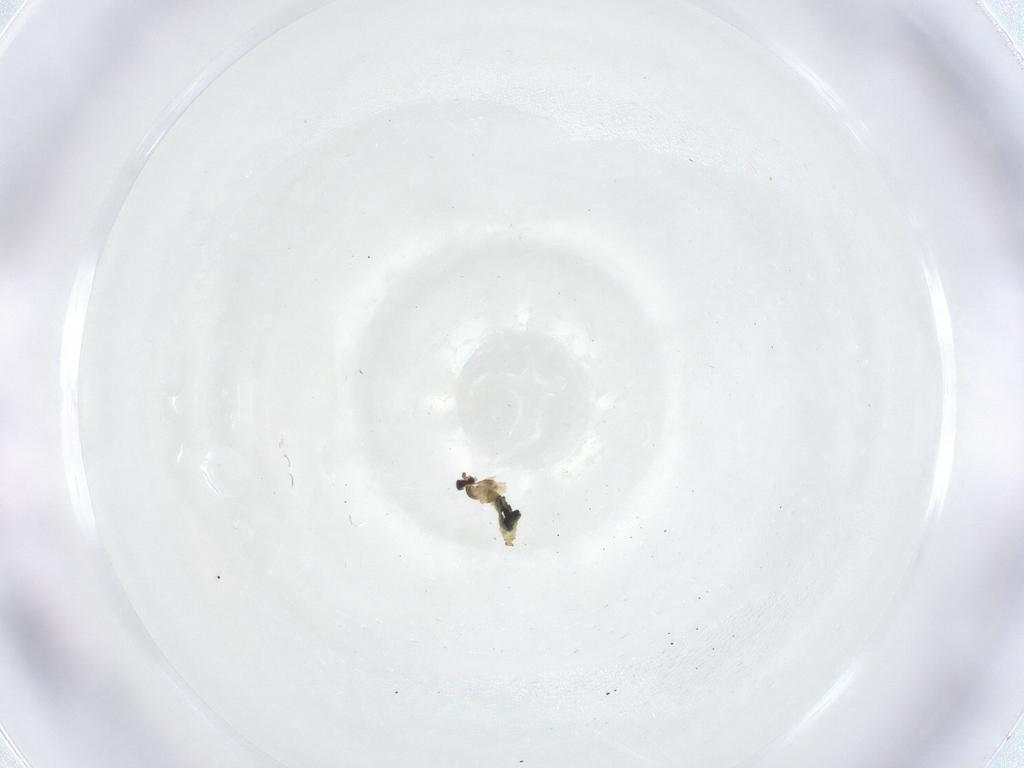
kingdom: Animalia
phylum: Arthropoda
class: Insecta
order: Diptera
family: Cecidomyiidae
